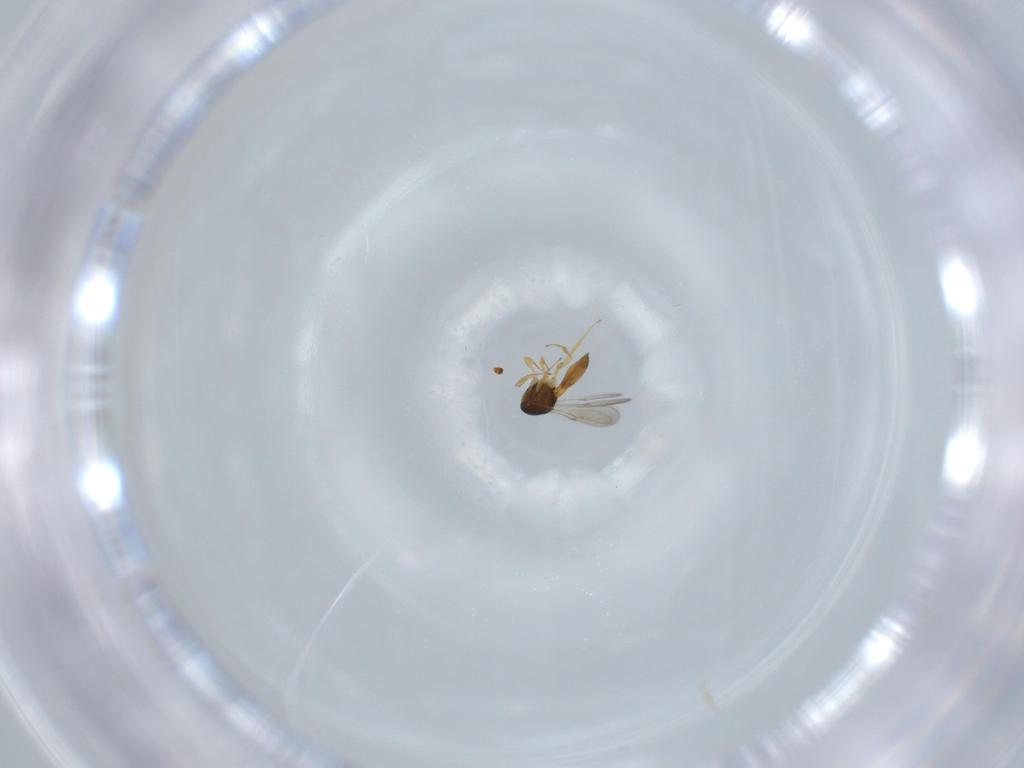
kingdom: Animalia
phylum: Arthropoda
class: Insecta
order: Hymenoptera
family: Scelionidae
